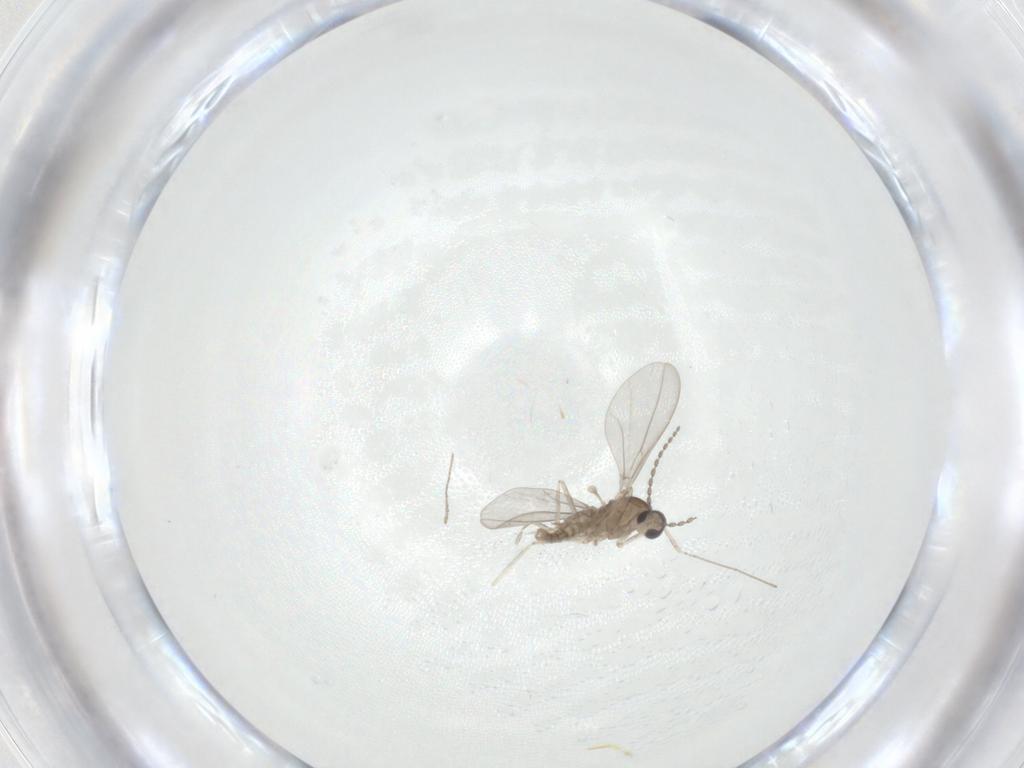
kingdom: Animalia
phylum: Arthropoda
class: Insecta
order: Diptera
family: Cecidomyiidae
